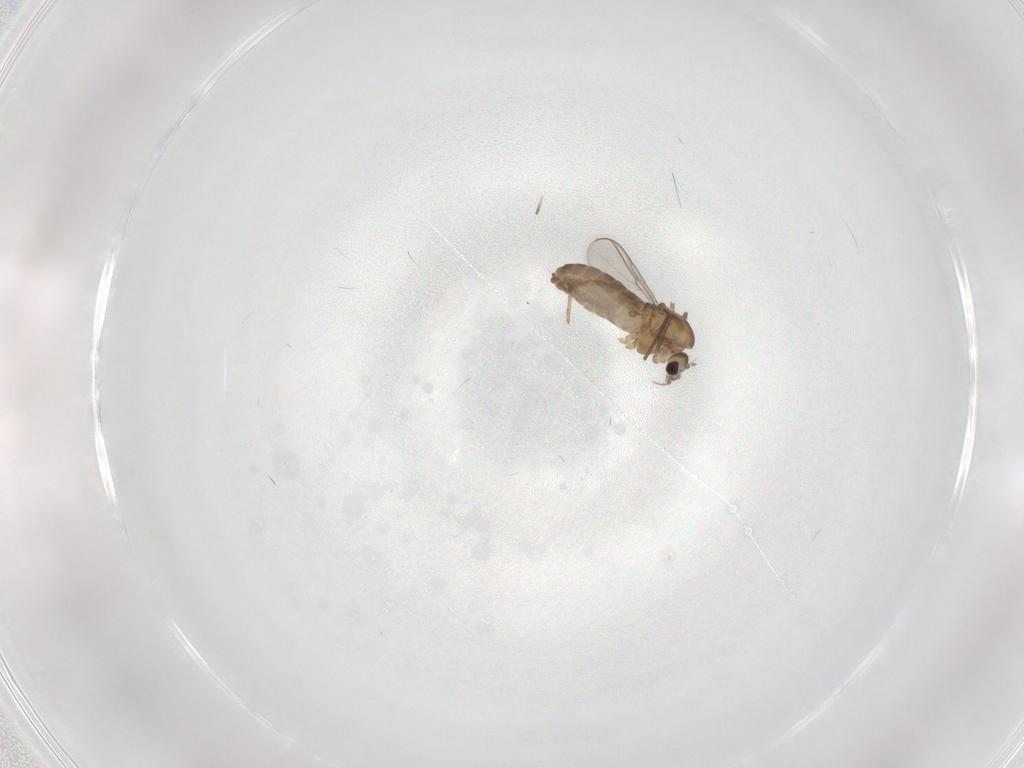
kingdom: Animalia
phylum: Arthropoda
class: Insecta
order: Diptera
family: Chironomidae
